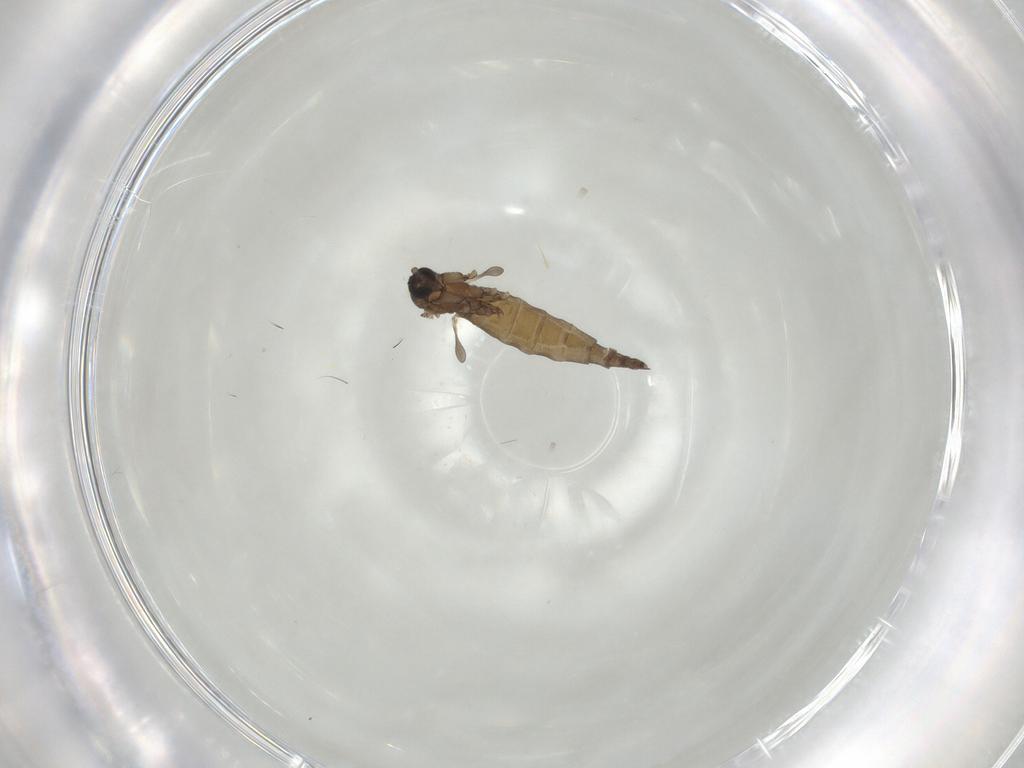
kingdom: Animalia
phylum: Arthropoda
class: Insecta
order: Diptera
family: Sciaridae
